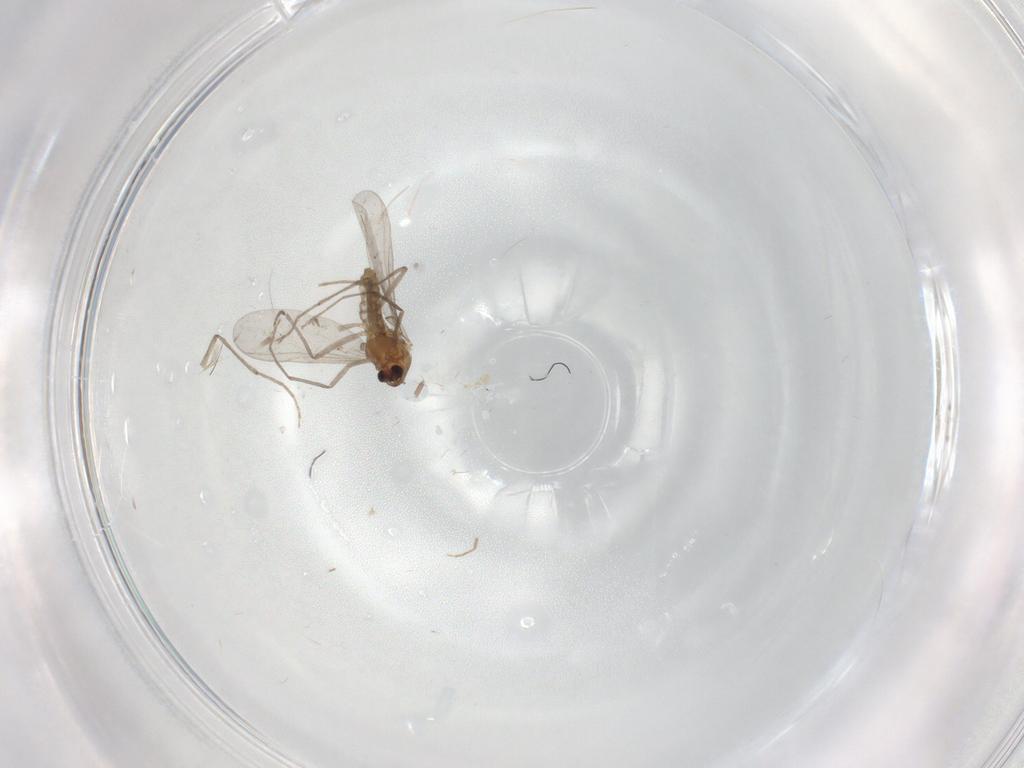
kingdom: Animalia
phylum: Arthropoda
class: Insecta
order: Diptera
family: Chironomidae
